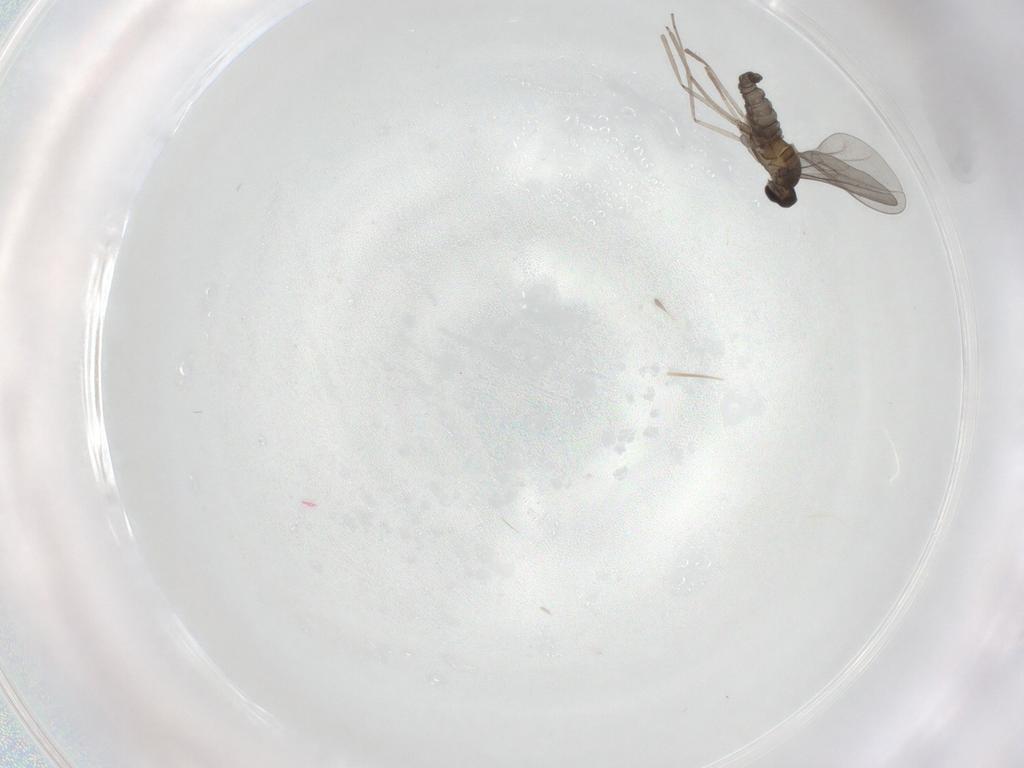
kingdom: Animalia
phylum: Arthropoda
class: Insecta
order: Diptera
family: Cecidomyiidae
